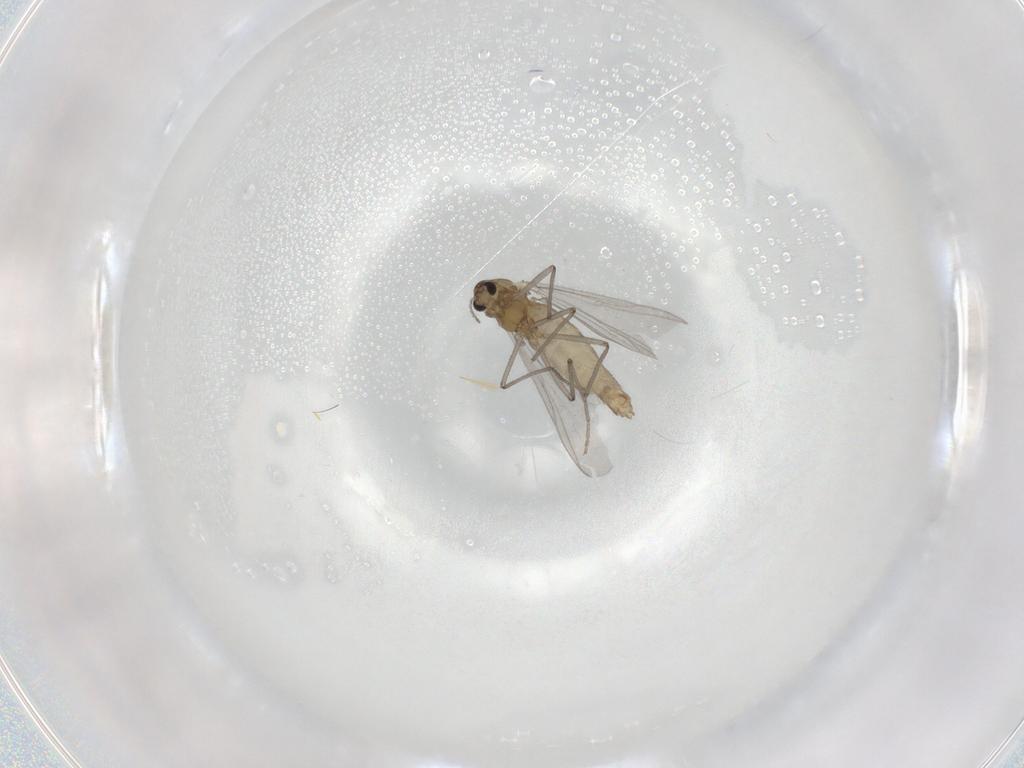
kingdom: Animalia
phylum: Arthropoda
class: Insecta
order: Diptera
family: Chironomidae
